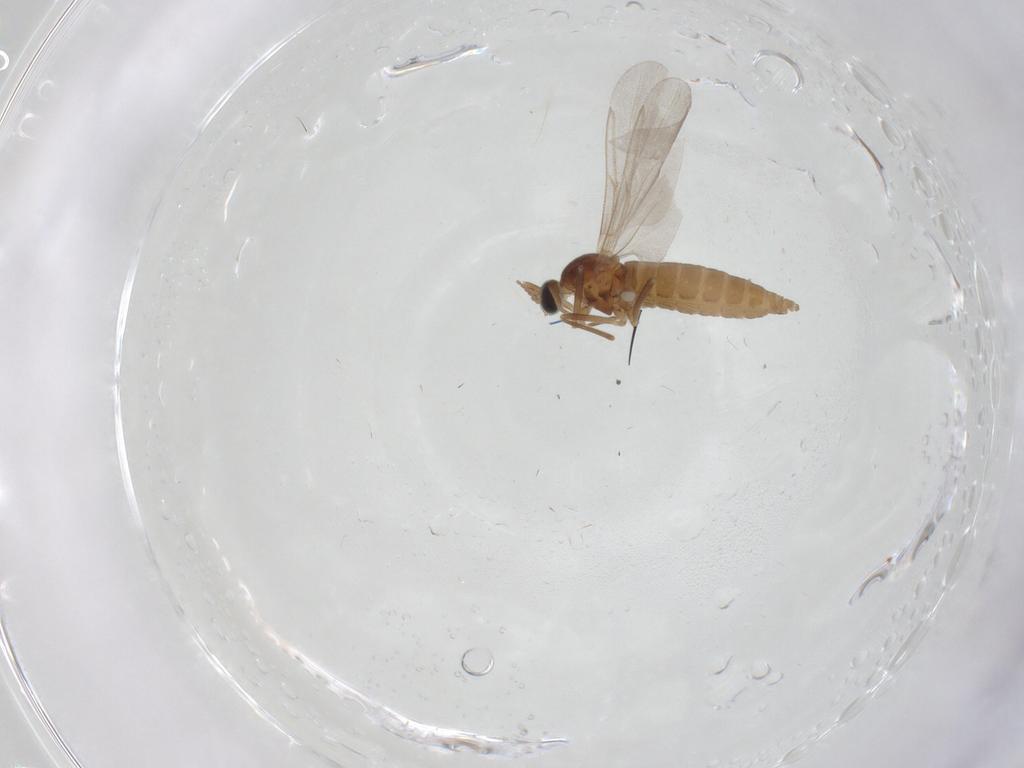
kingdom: Animalia
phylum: Arthropoda
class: Insecta
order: Diptera
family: Cecidomyiidae
